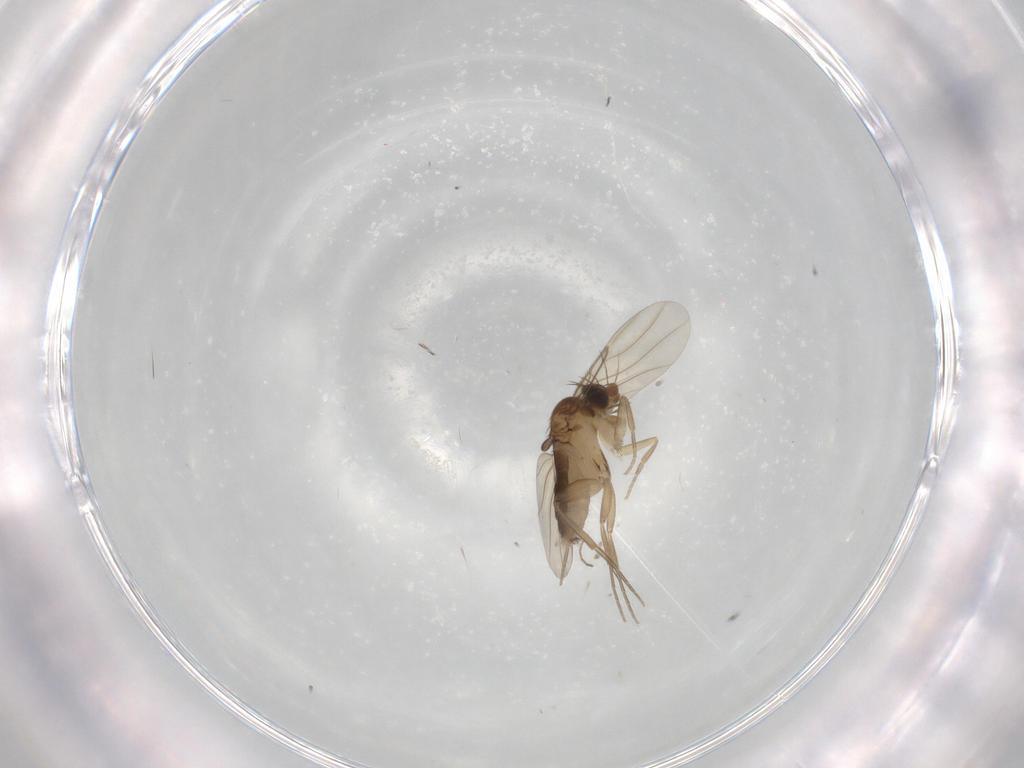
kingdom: Animalia
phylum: Arthropoda
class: Insecta
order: Diptera
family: Phoridae
